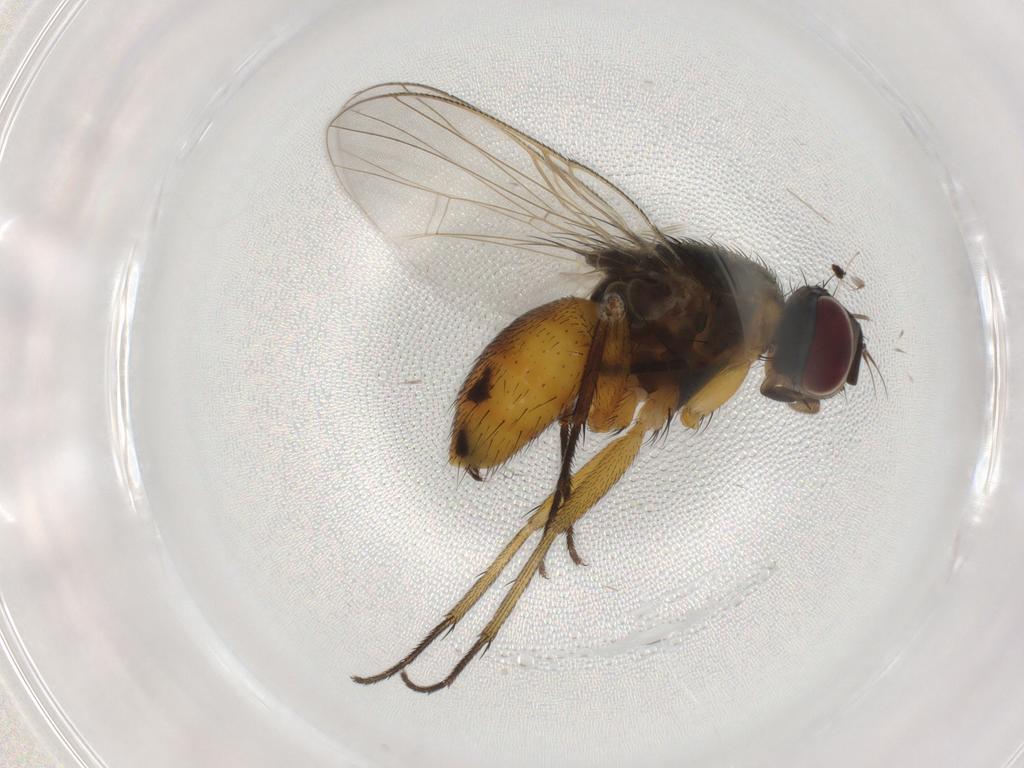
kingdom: Animalia
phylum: Arthropoda
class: Insecta
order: Diptera
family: Muscidae
